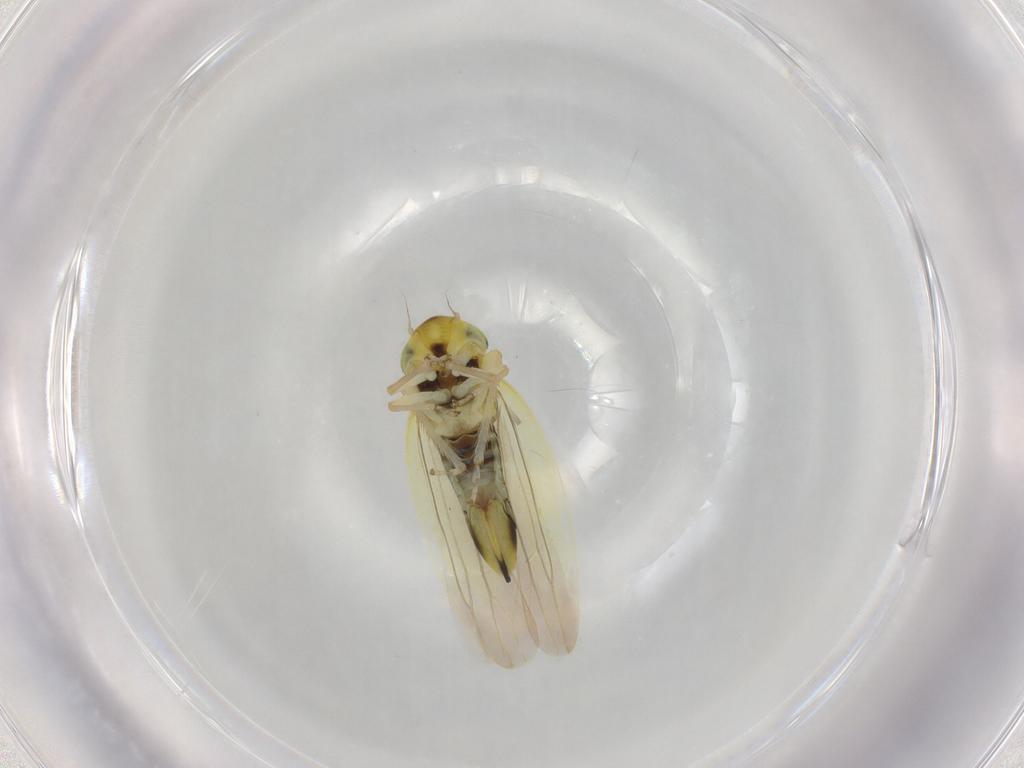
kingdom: Animalia
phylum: Arthropoda
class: Insecta
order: Hemiptera
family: Cicadellidae
